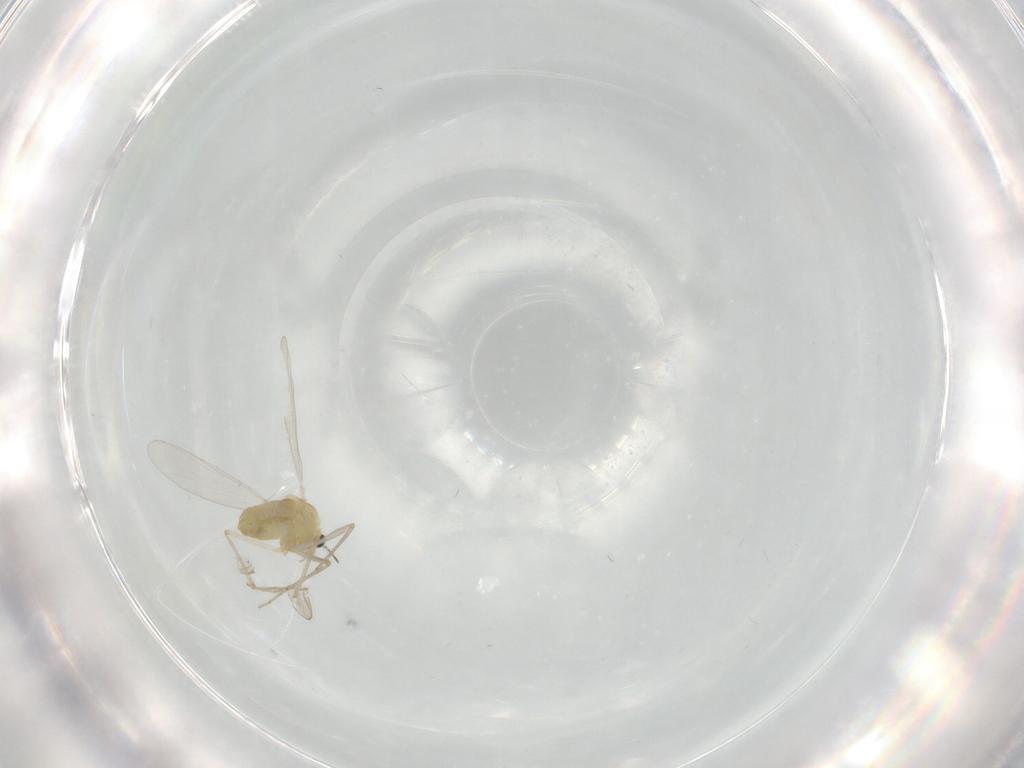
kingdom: Animalia
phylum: Arthropoda
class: Insecta
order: Diptera
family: Chironomidae
